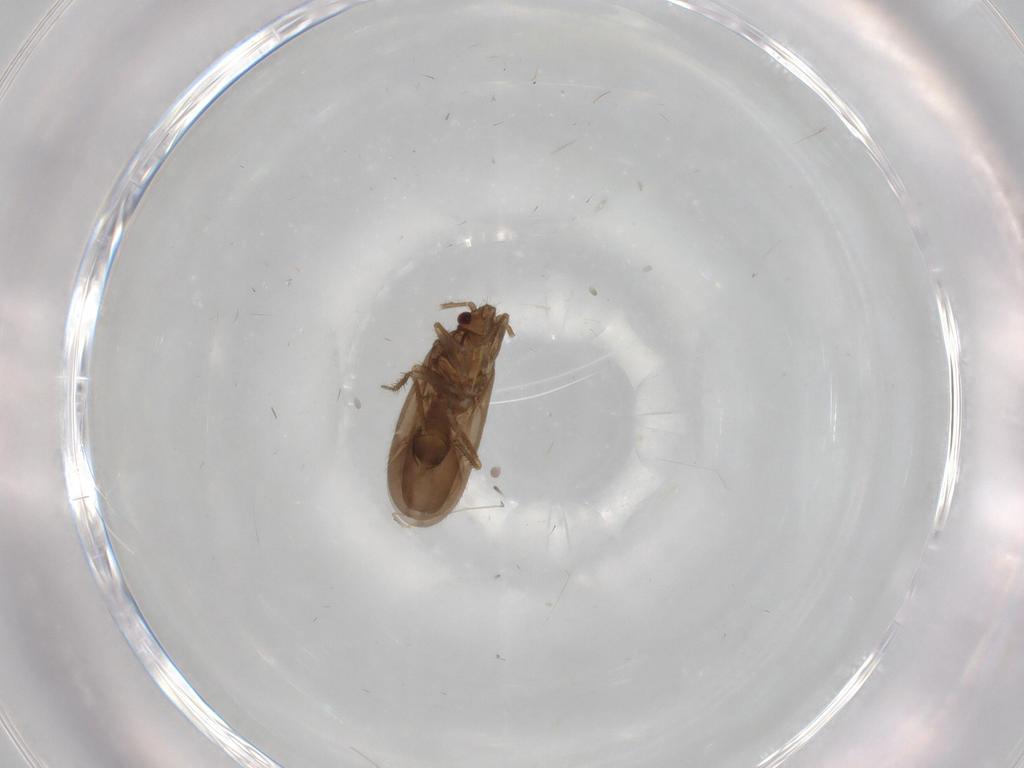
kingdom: Animalia
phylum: Arthropoda
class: Insecta
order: Hemiptera
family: Ceratocombidae
